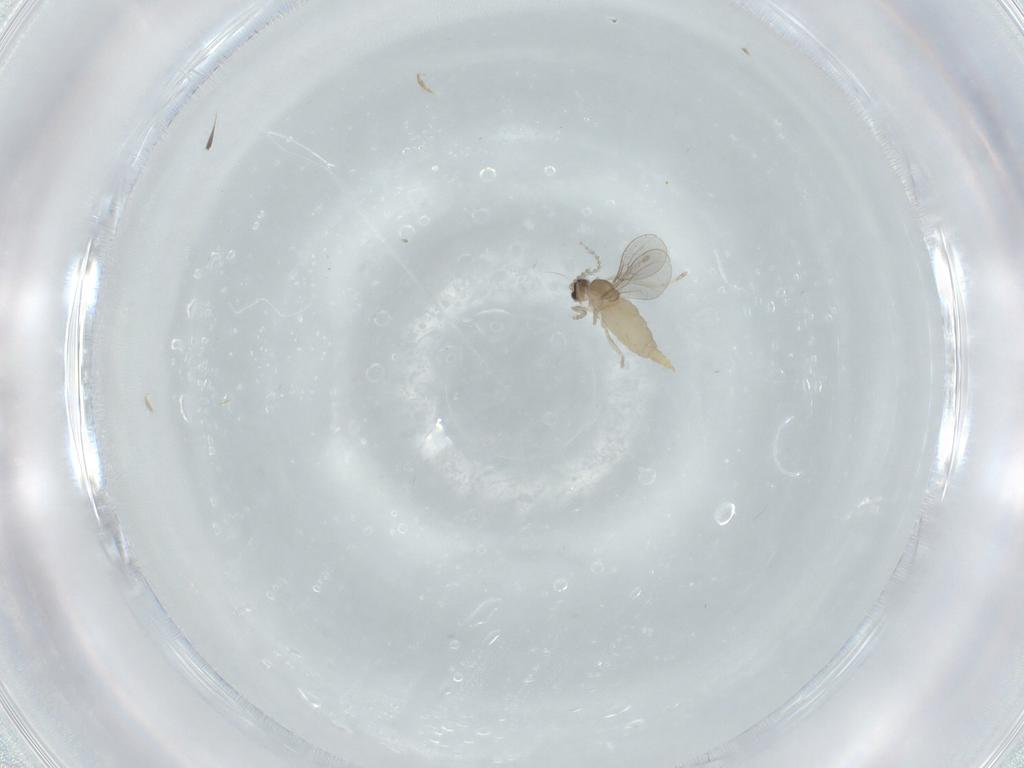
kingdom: Animalia
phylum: Arthropoda
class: Insecta
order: Diptera
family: Cecidomyiidae
